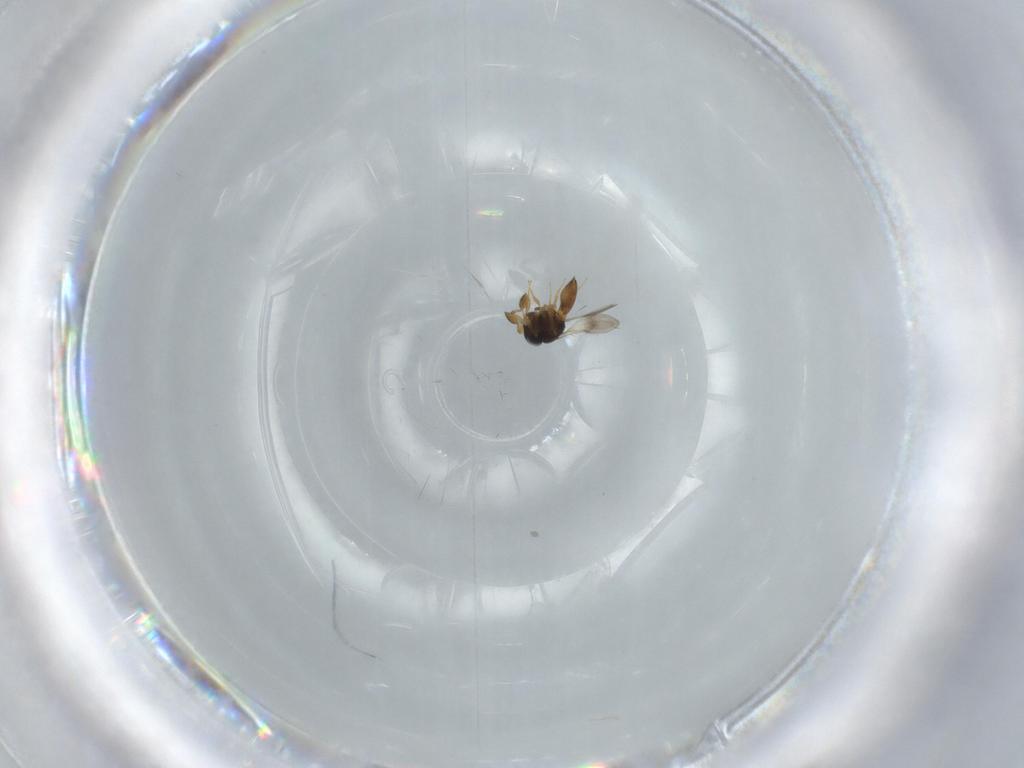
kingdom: Animalia
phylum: Arthropoda
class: Insecta
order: Hymenoptera
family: Scelionidae
